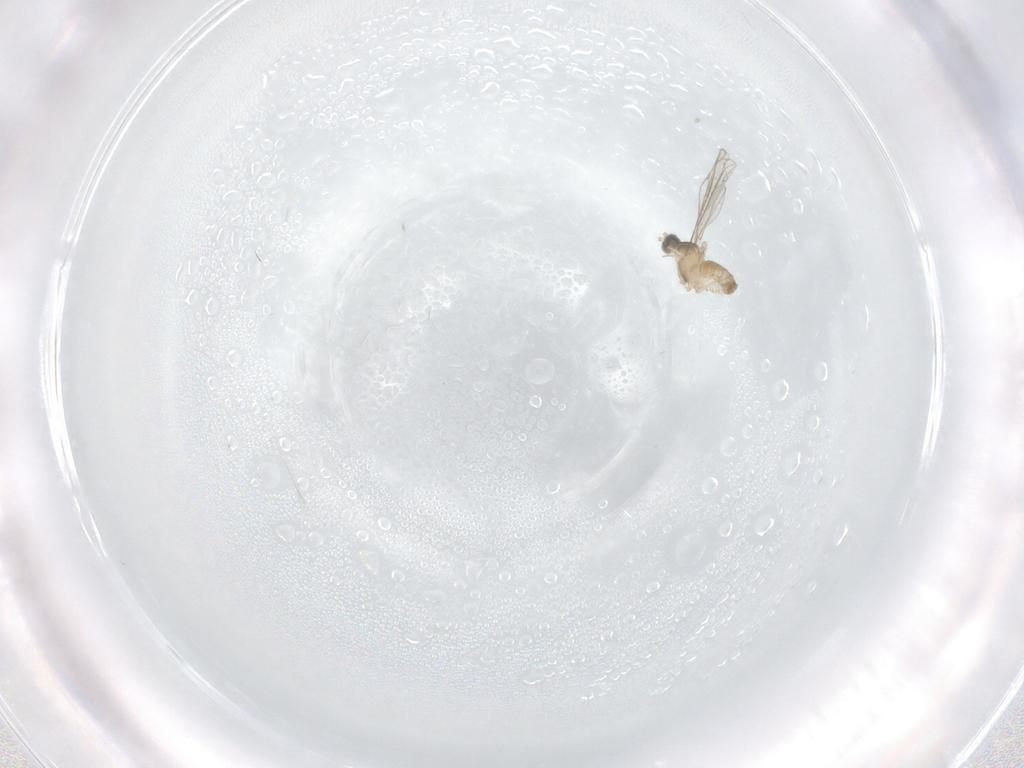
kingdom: Animalia
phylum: Arthropoda
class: Insecta
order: Diptera
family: Cecidomyiidae
